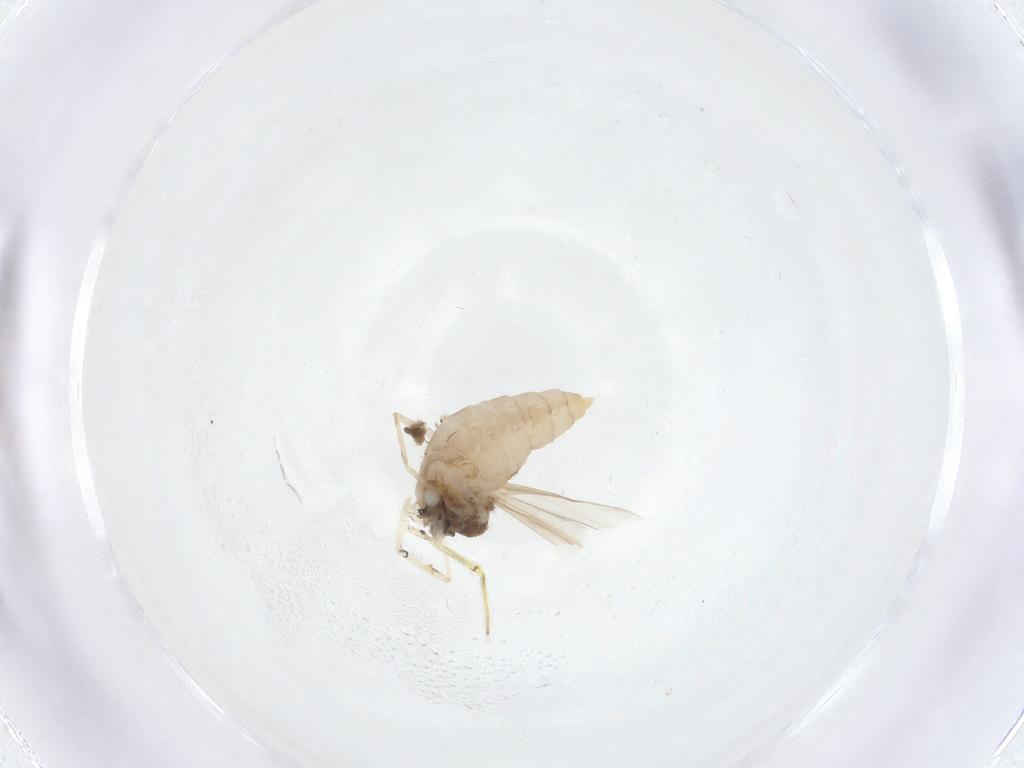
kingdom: Animalia
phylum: Arthropoda
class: Insecta
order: Diptera
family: Cecidomyiidae
